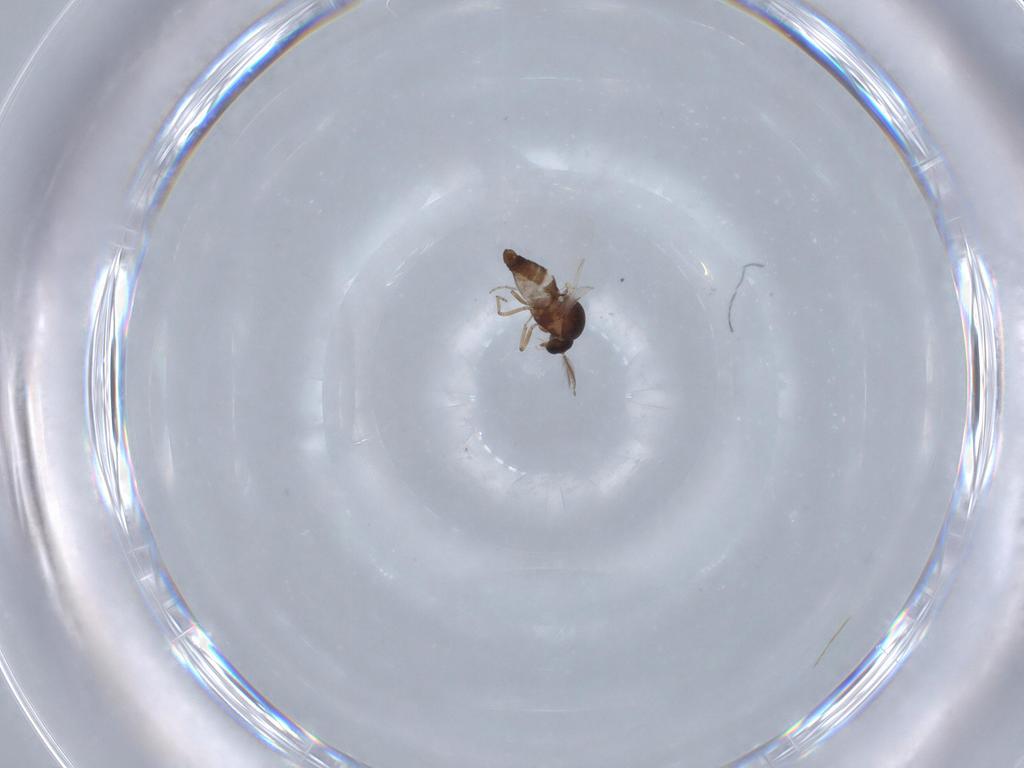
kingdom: Animalia
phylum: Arthropoda
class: Insecta
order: Diptera
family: Ceratopogonidae
